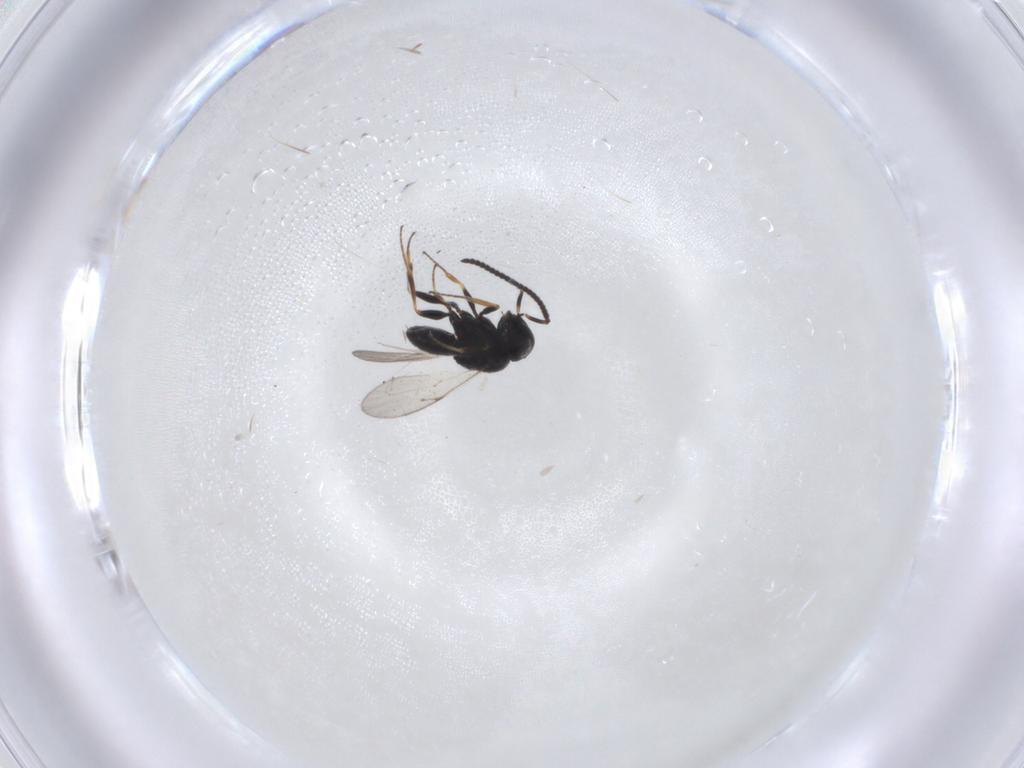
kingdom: Animalia
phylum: Arthropoda
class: Insecta
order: Hymenoptera
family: Scelionidae
